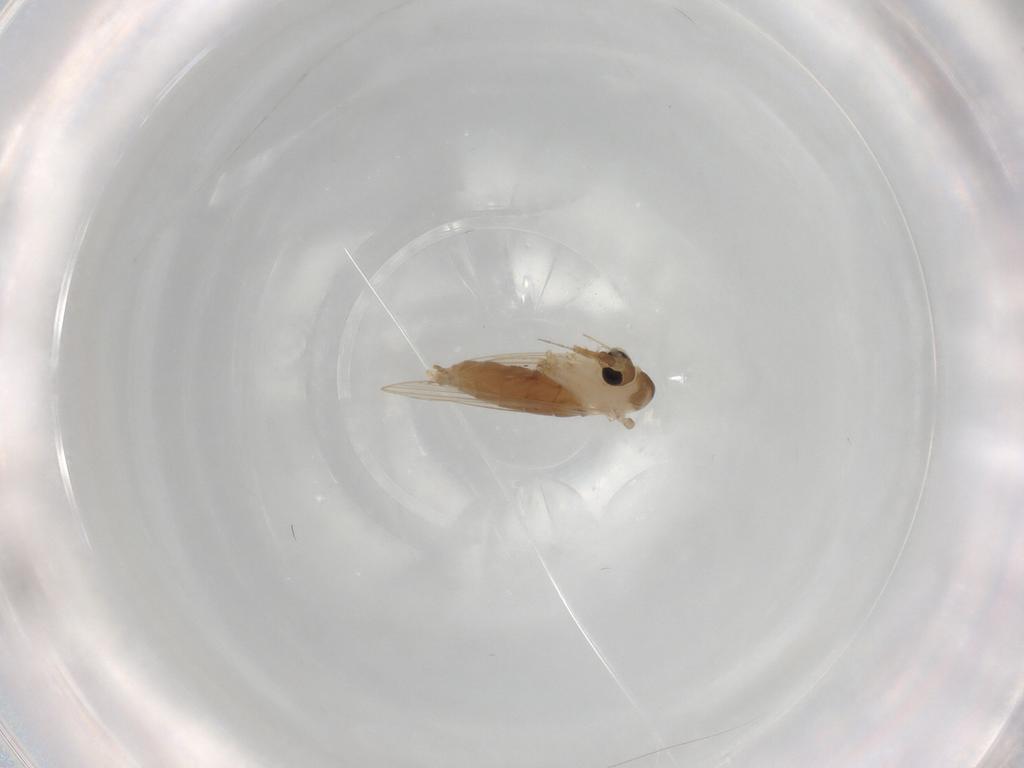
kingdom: Animalia
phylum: Arthropoda
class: Insecta
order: Diptera
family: Psychodidae
